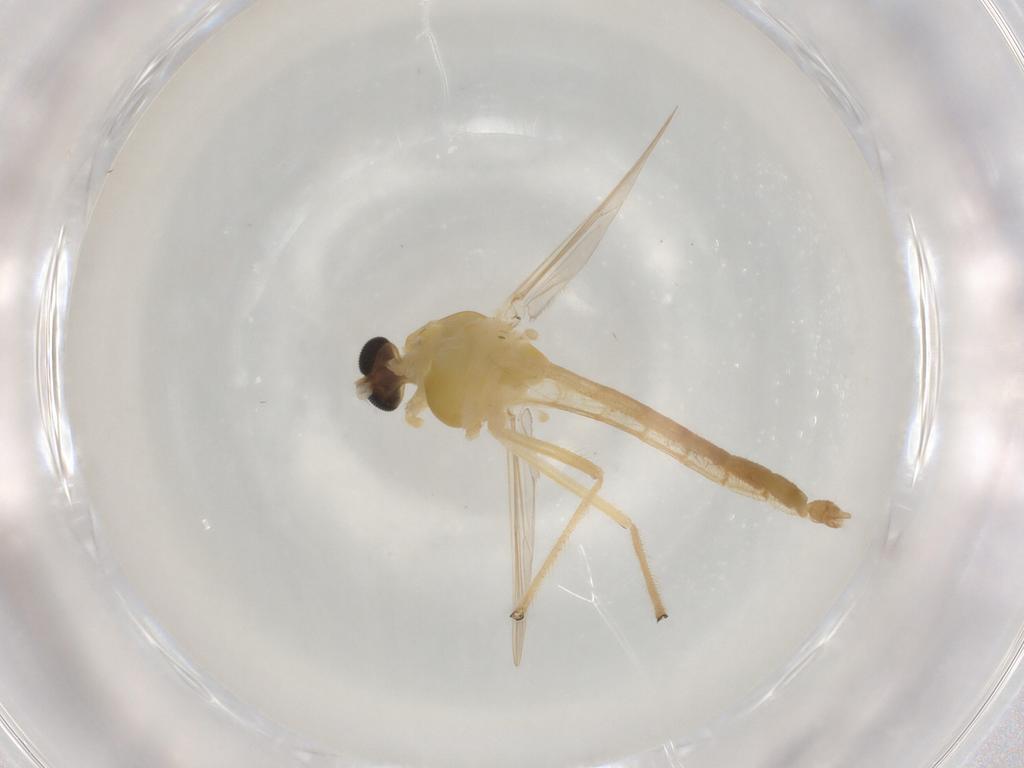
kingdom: Animalia
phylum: Arthropoda
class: Insecta
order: Diptera
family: Chironomidae
